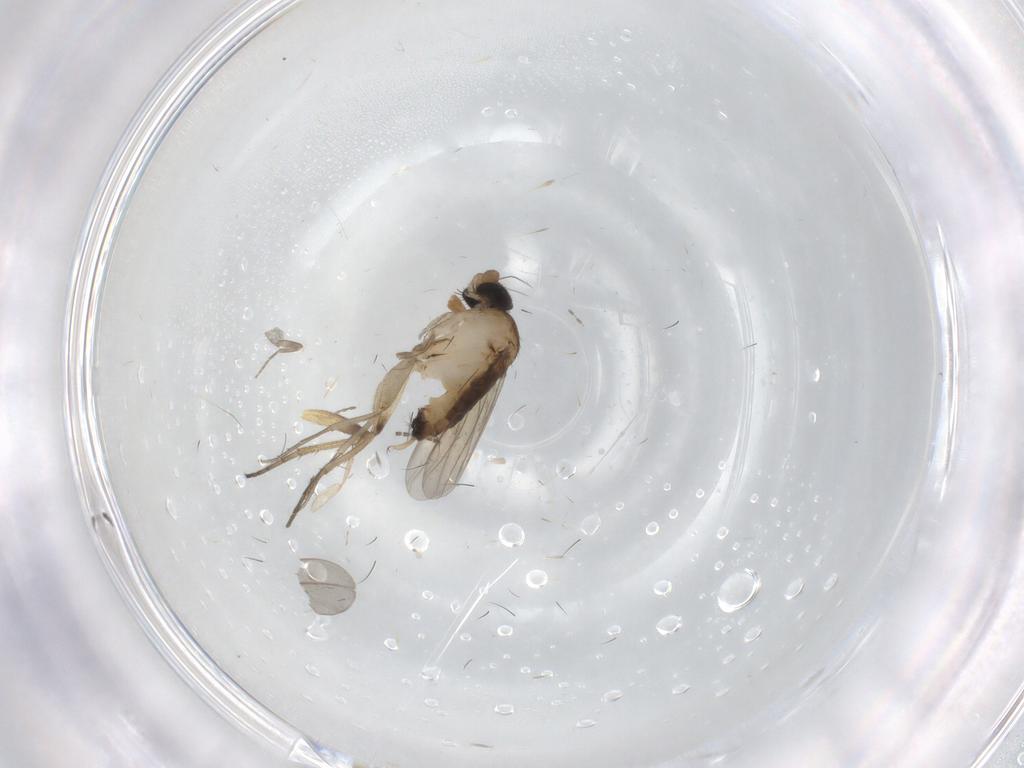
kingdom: Animalia
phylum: Arthropoda
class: Insecta
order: Diptera
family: Phoridae
